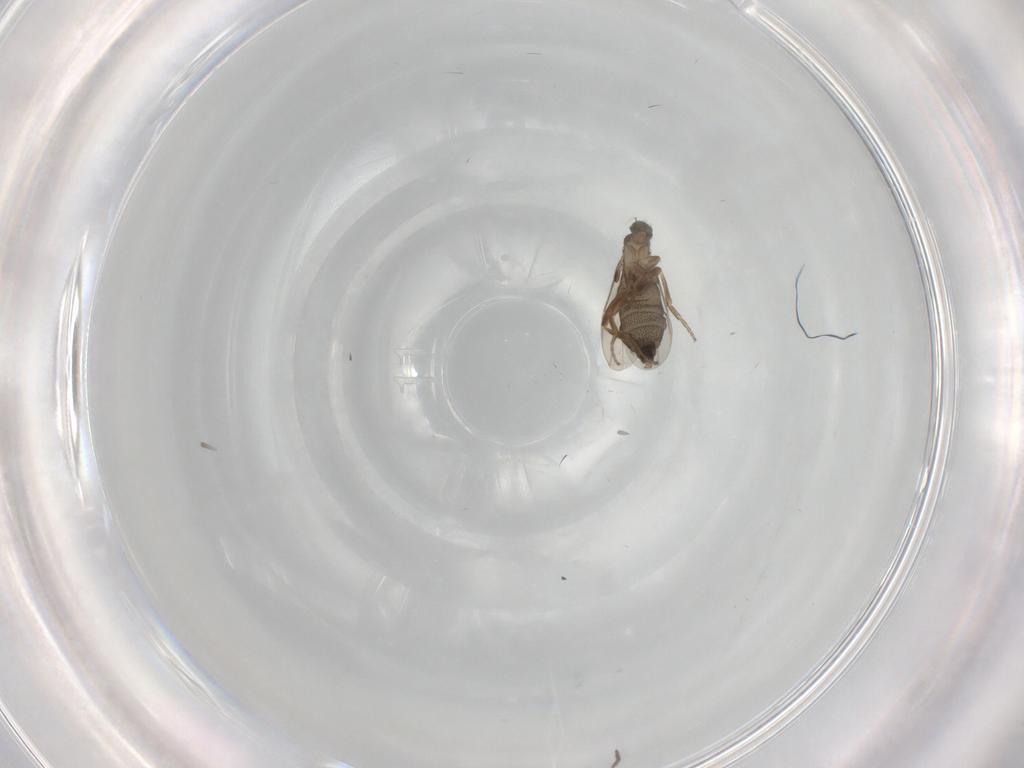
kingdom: Animalia
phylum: Arthropoda
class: Insecta
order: Diptera
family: Phoridae
